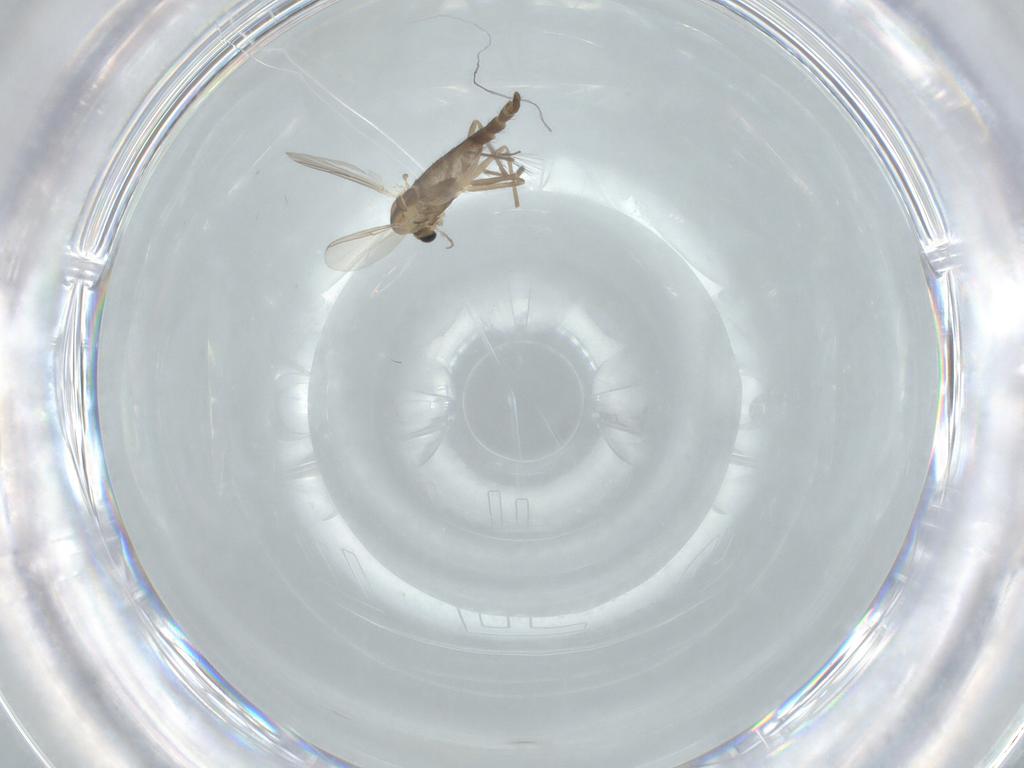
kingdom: Animalia
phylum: Arthropoda
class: Insecta
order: Diptera
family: Chironomidae
